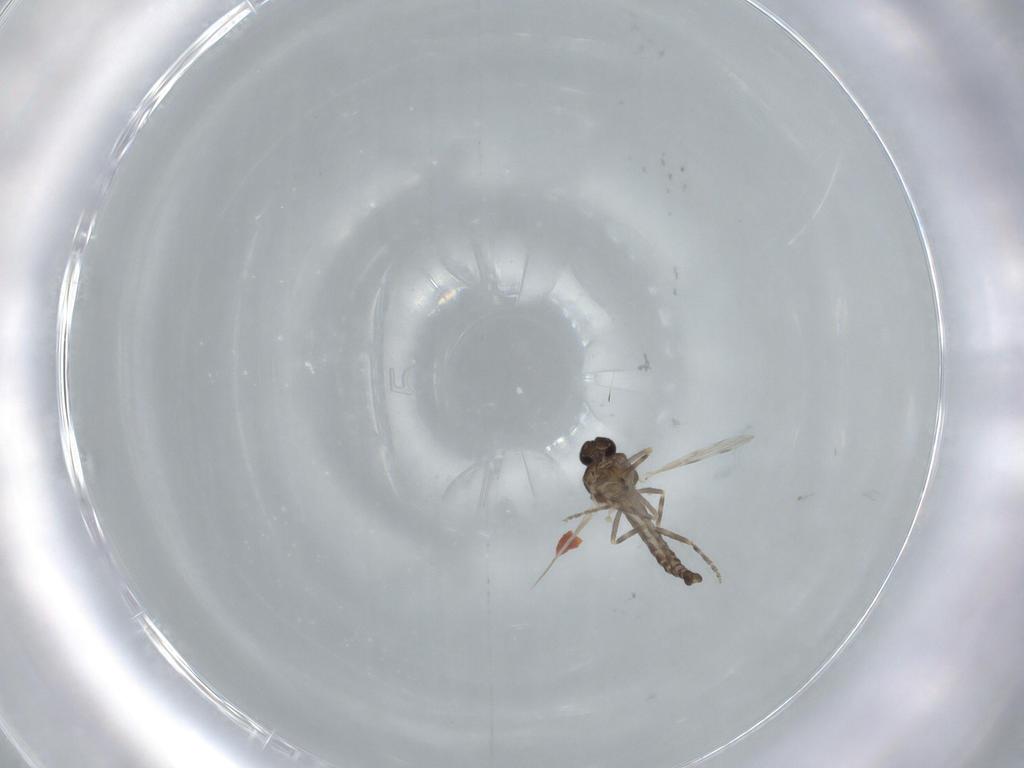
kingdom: Animalia
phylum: Arthropoda
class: Insecta
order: Diptera
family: Ceratopogonidae
